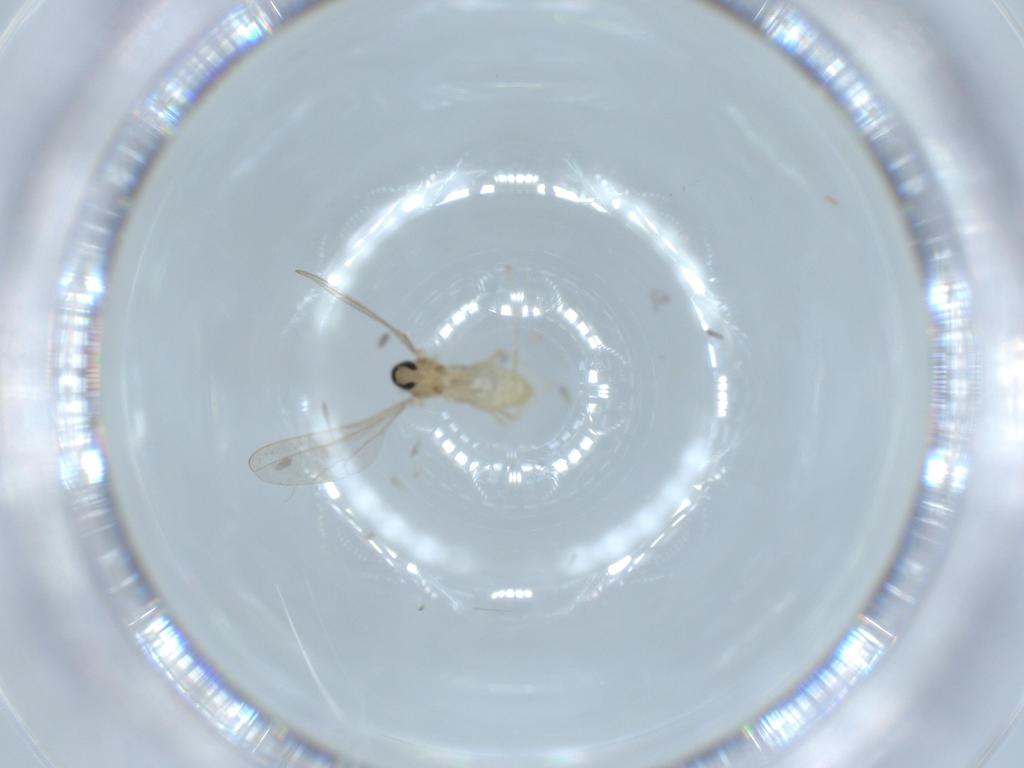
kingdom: Animalia
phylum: Arthropoda
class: Insecta
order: Diptera
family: Cecidomyiidae
